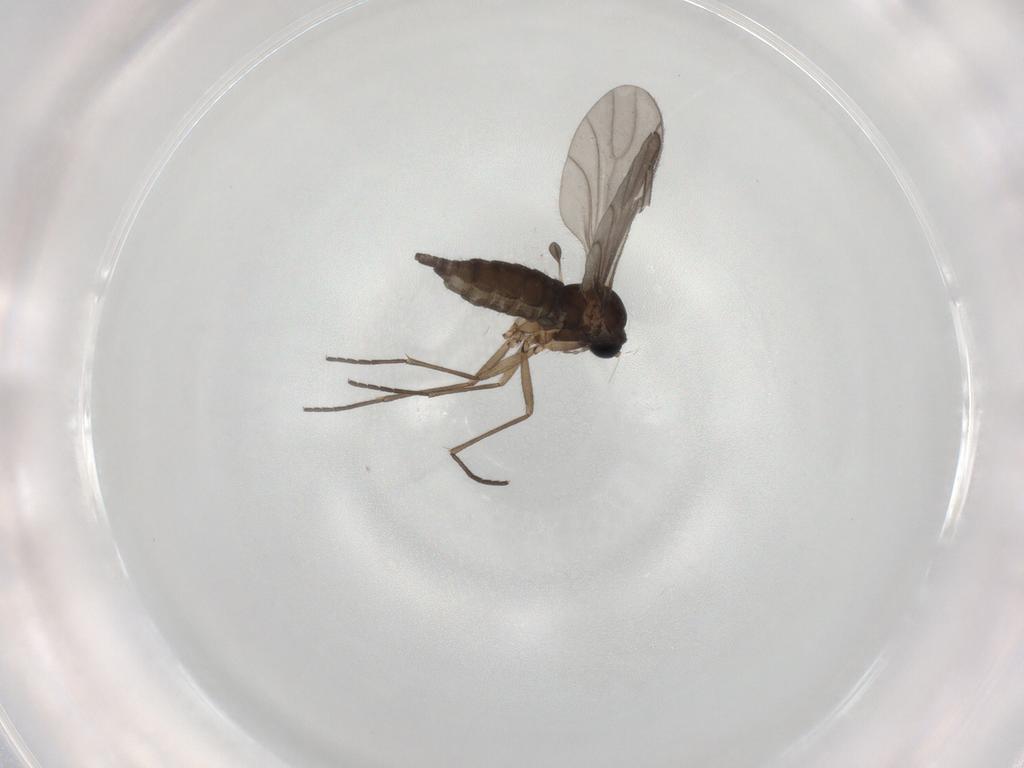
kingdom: Animalia
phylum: Arthropoda
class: Insecta
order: Diptera
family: Sciaridae
